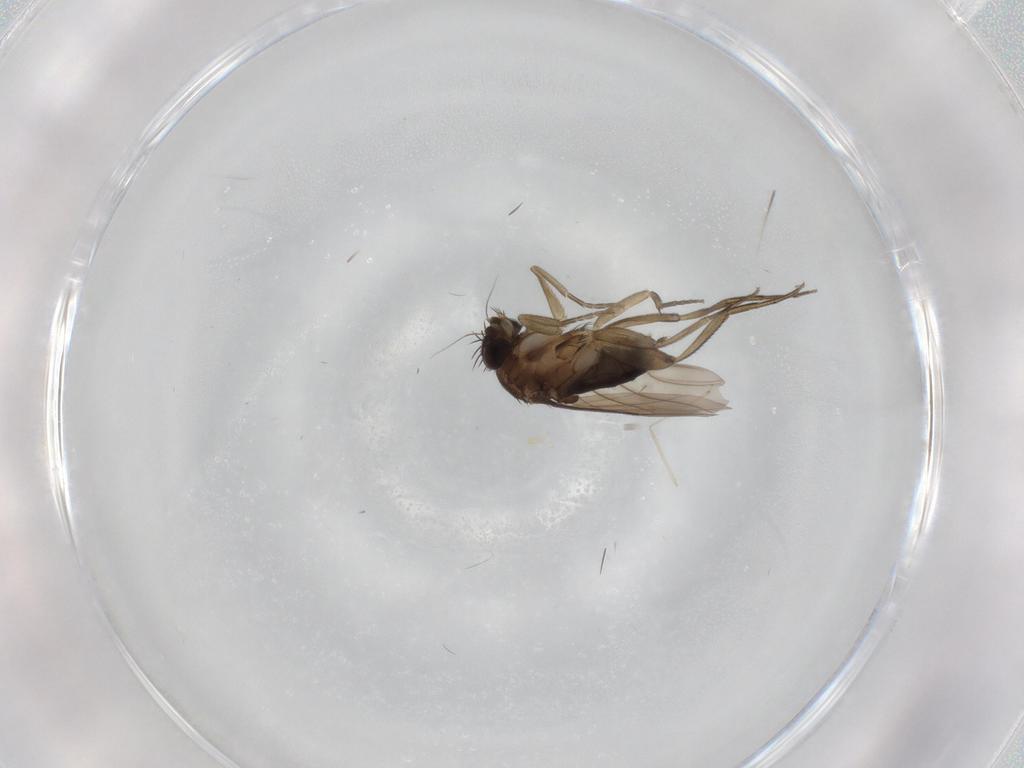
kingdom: Animalia
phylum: Arthropoda
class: Insecta
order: Diptera
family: Phoridae
